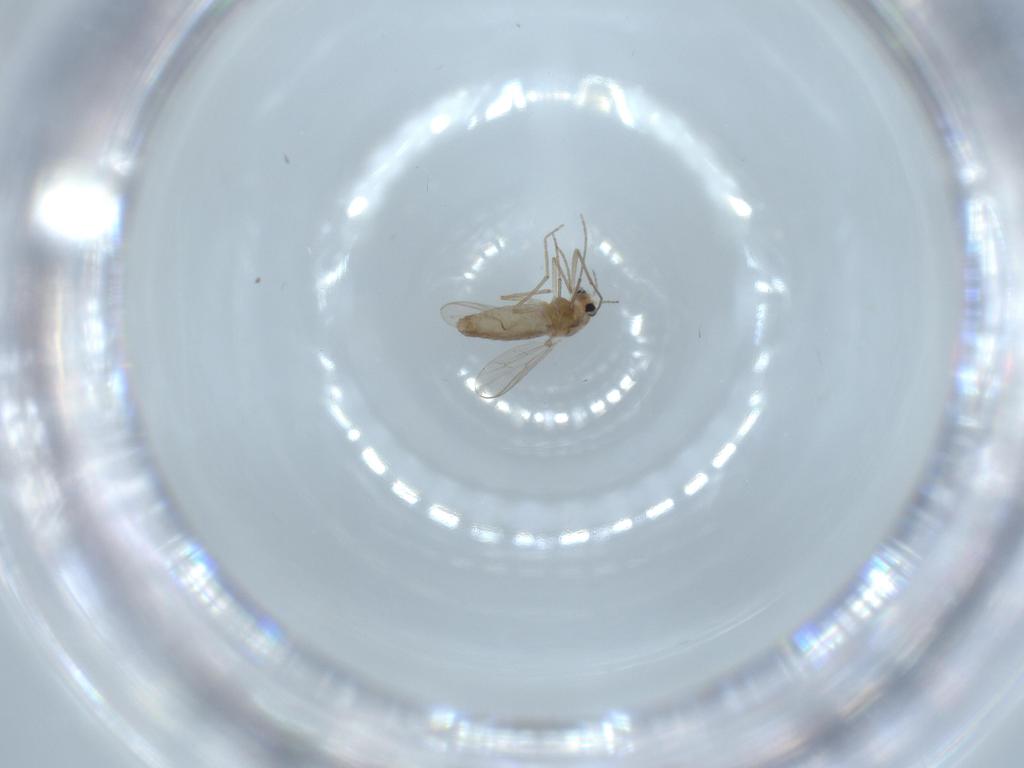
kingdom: Animalia
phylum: Arthropoda
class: Insecta
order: Diptera
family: Chironomidae
